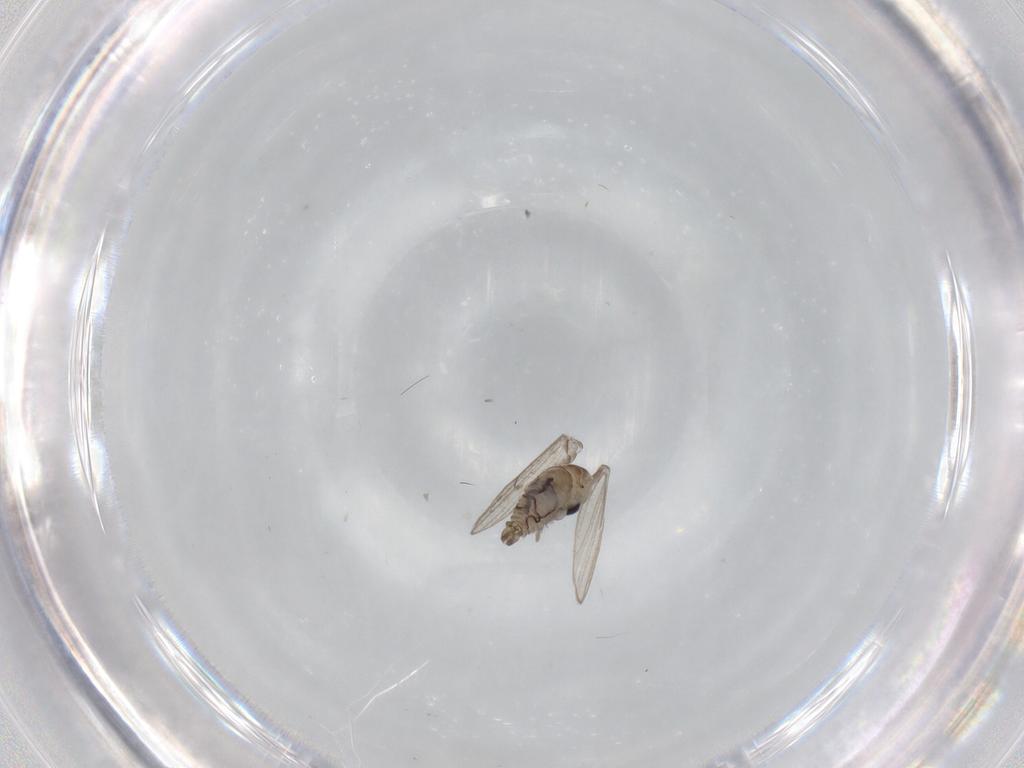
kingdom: Animalia
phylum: Arthropoda
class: Insecta
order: Diptera
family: Psychodidae
